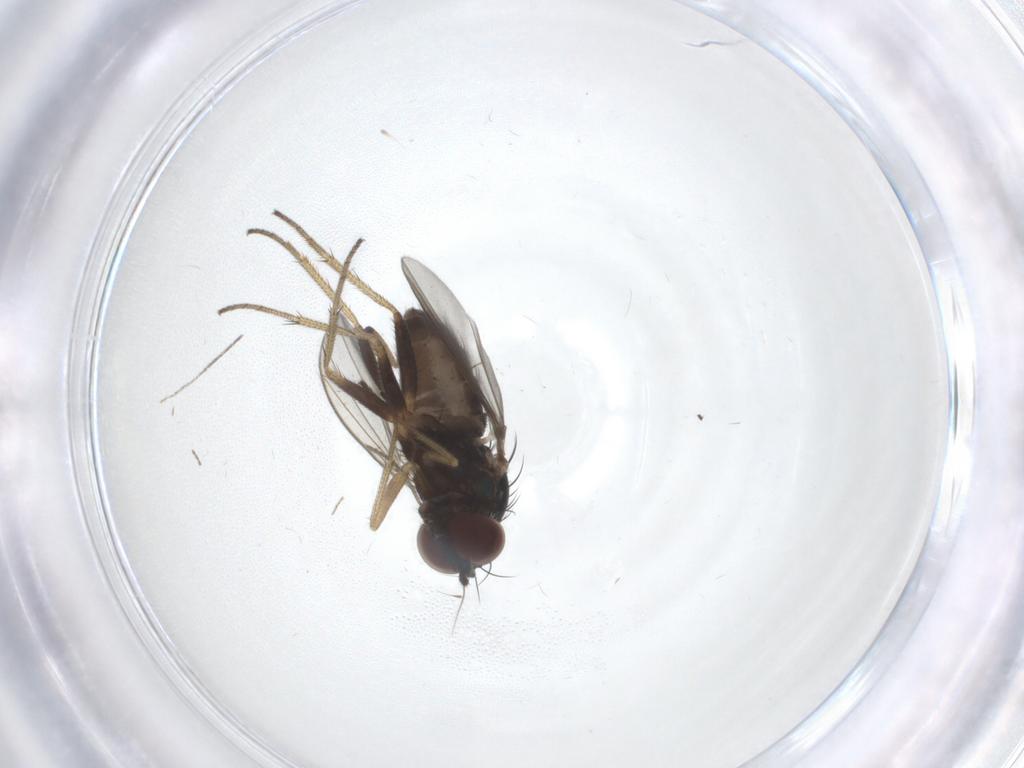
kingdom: Animalia
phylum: Arthropoda
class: Insecta
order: Diptera
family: Dolichopodidae
